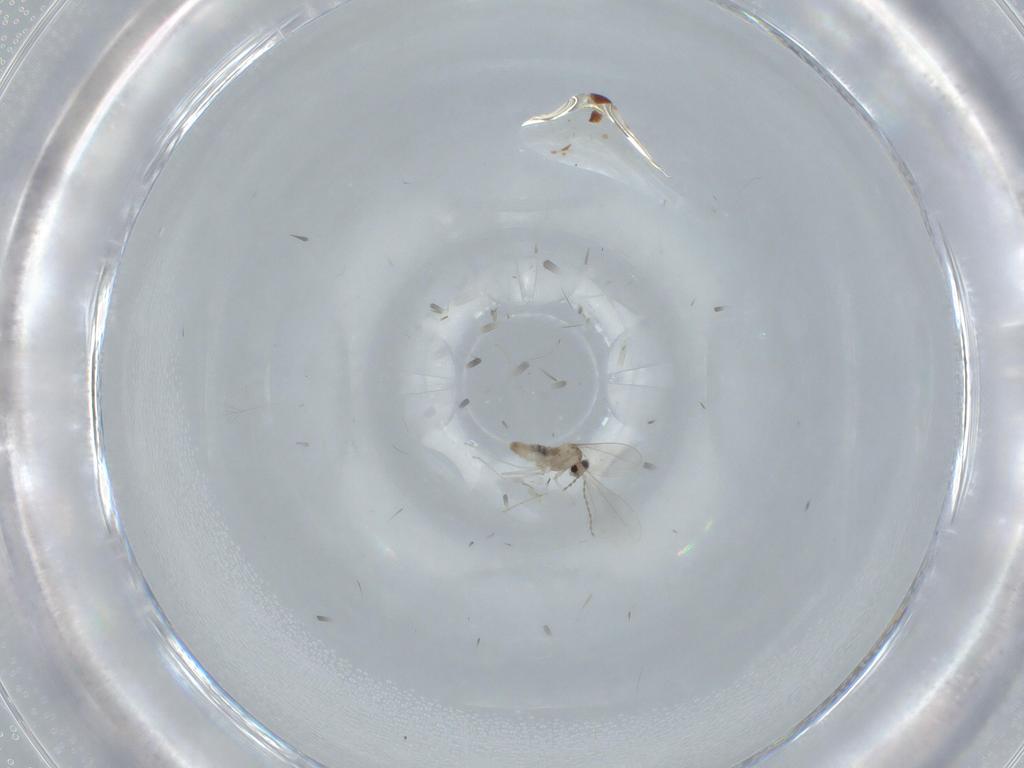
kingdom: Animalia
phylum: Arthropoda
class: Insecta
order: Diptera
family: Cecidomyiidae
